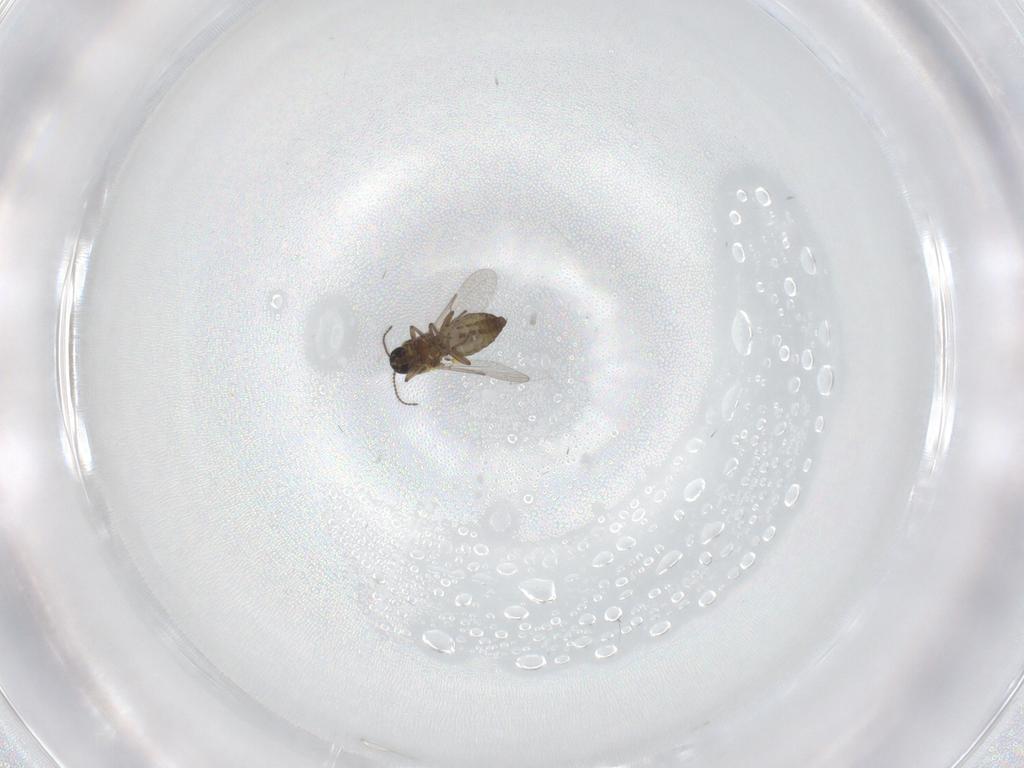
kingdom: Animalia
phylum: Arthropoda
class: Insecta
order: Diptera
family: Ceratopogonidae
